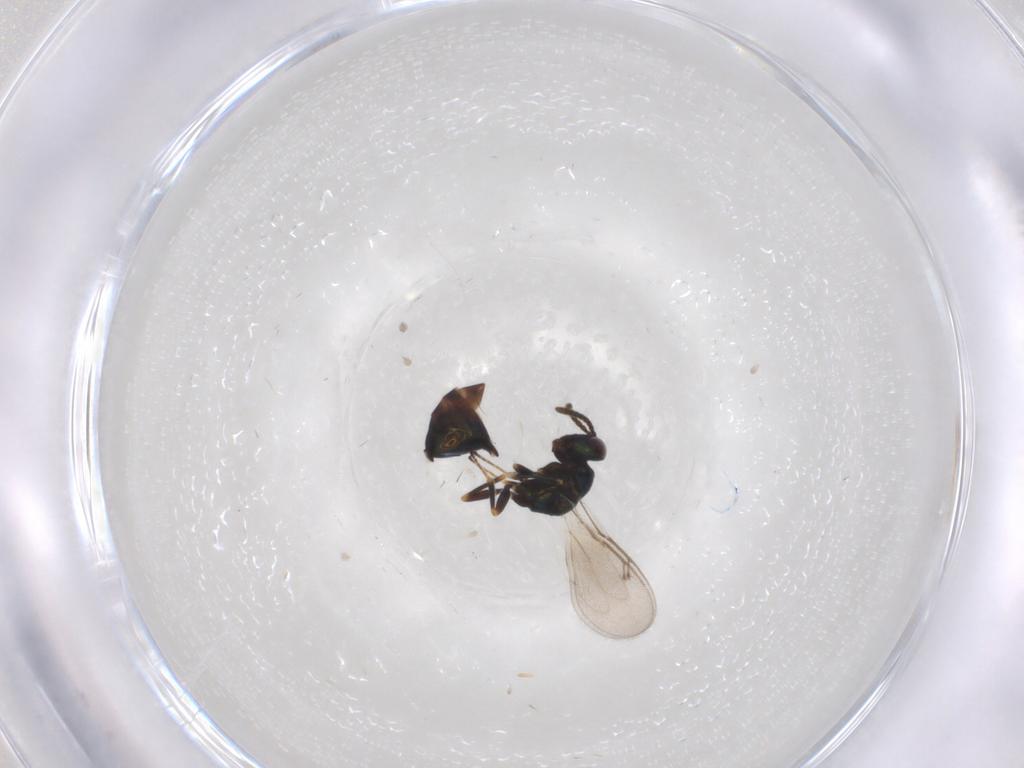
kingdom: Animalia
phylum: Arthropoda
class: Insecta
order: Hymenoptera
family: Pteromalidae
